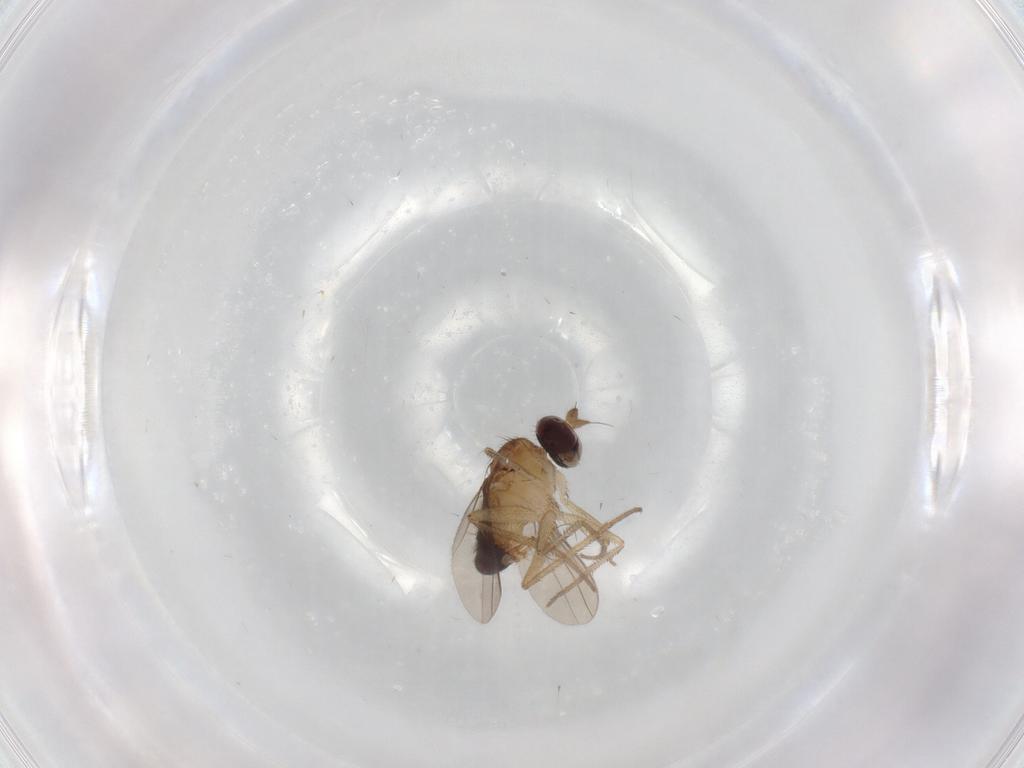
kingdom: Animalia
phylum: Arthropoda
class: Insecta
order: Diptera
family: Dolichopodidae
